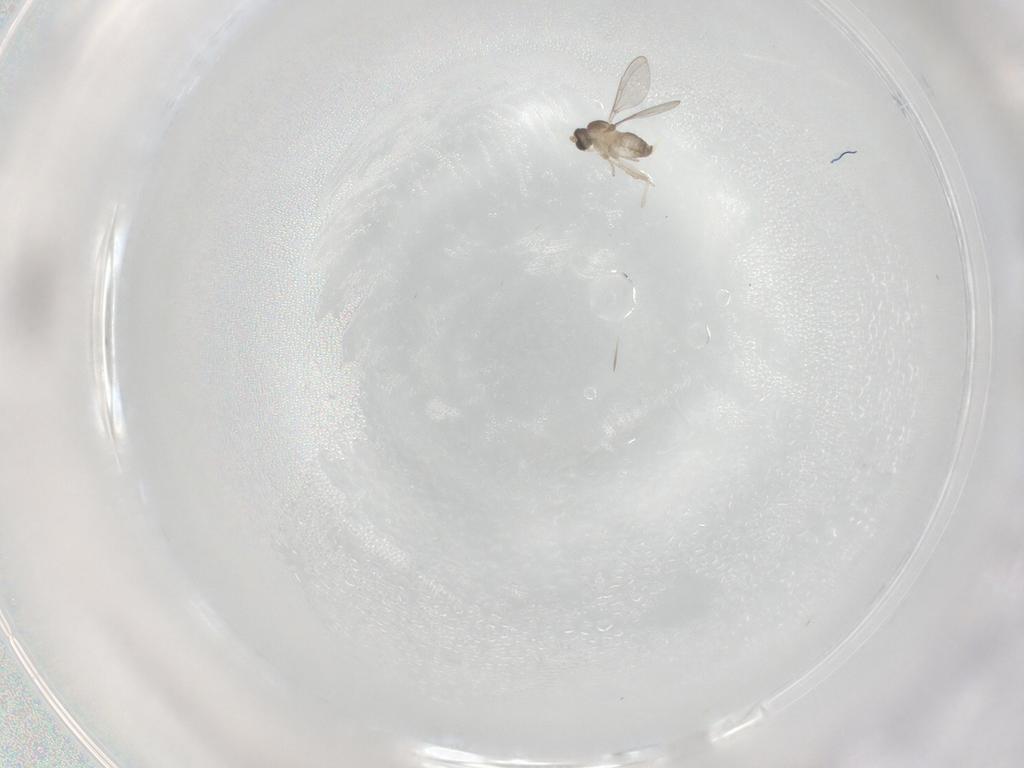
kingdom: Animalia
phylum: Arthropoda
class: Insecta
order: Diptera
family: Cecidomyiidae
